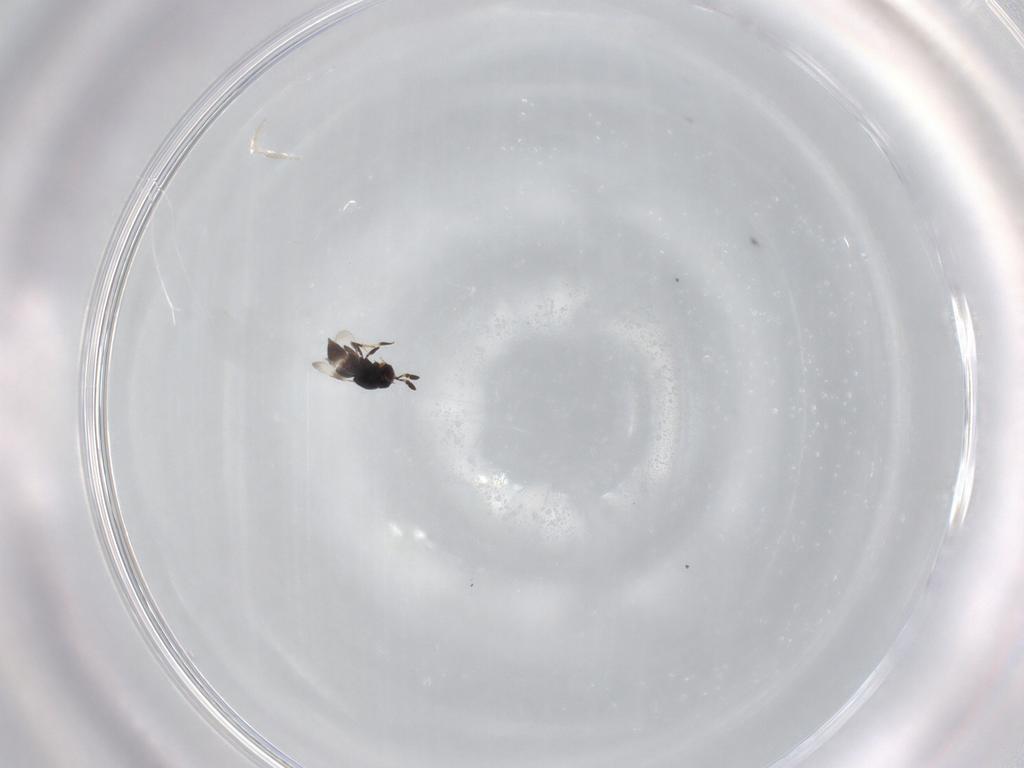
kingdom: Animalia
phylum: Arthropoda
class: Insecta
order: Hymenoptera
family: Ceraphronidae
